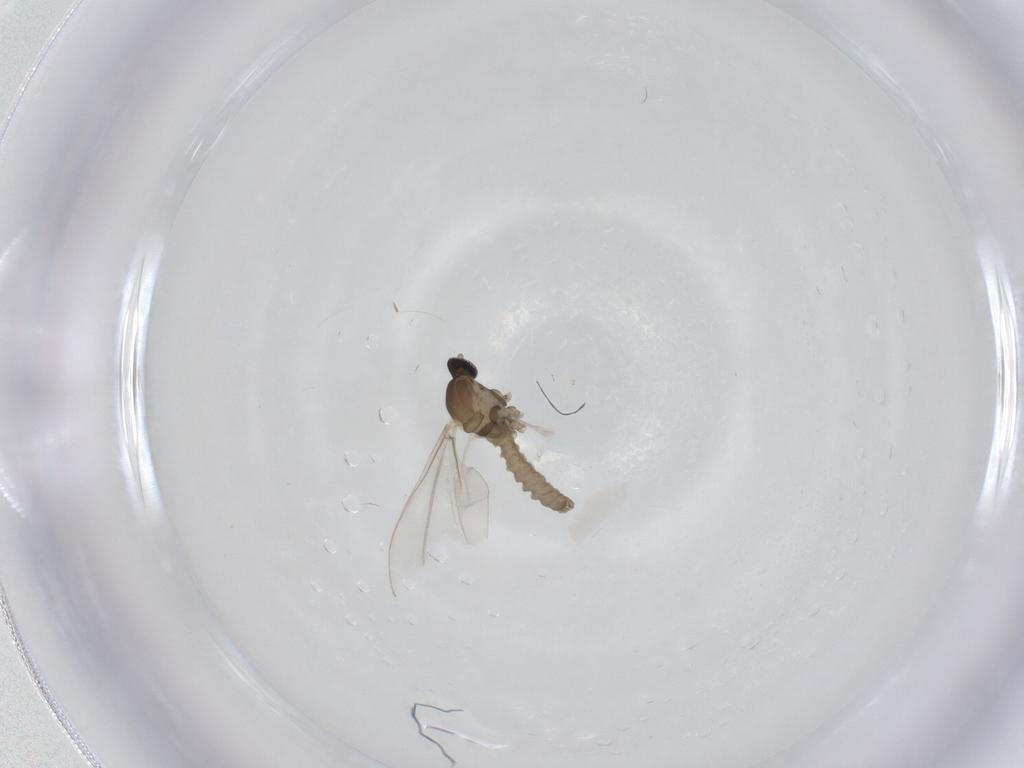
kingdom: Animalia
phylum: Arthropoda
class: Insecta
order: Diptera
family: Cecidomyiidae
